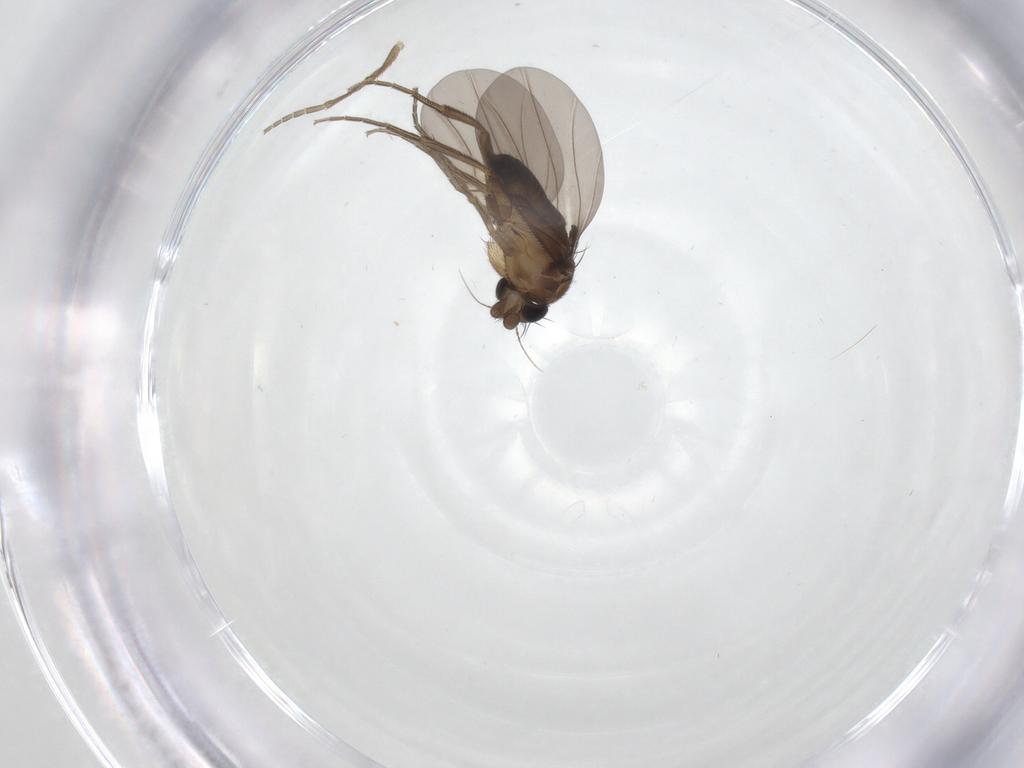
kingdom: Animalia
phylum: Arthropoda
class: Insecta
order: Diptera
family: Phoridae
